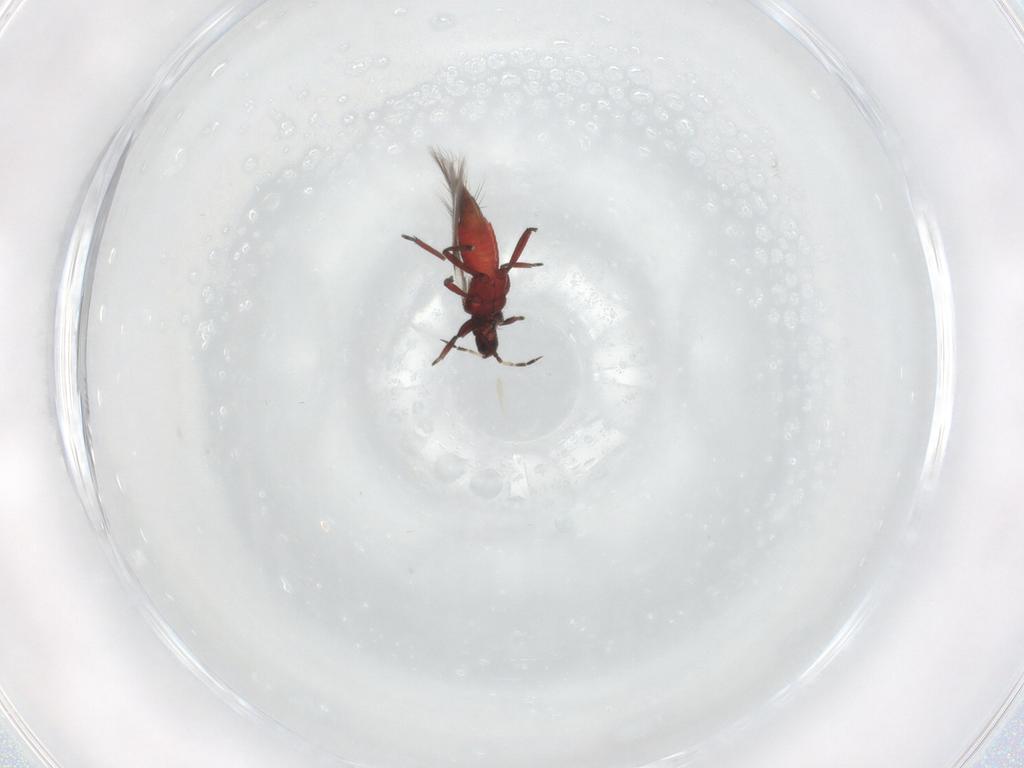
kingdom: Animalia
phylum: Arthropoda
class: Insecta
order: Thysanoptera
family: Aeolothripidae
